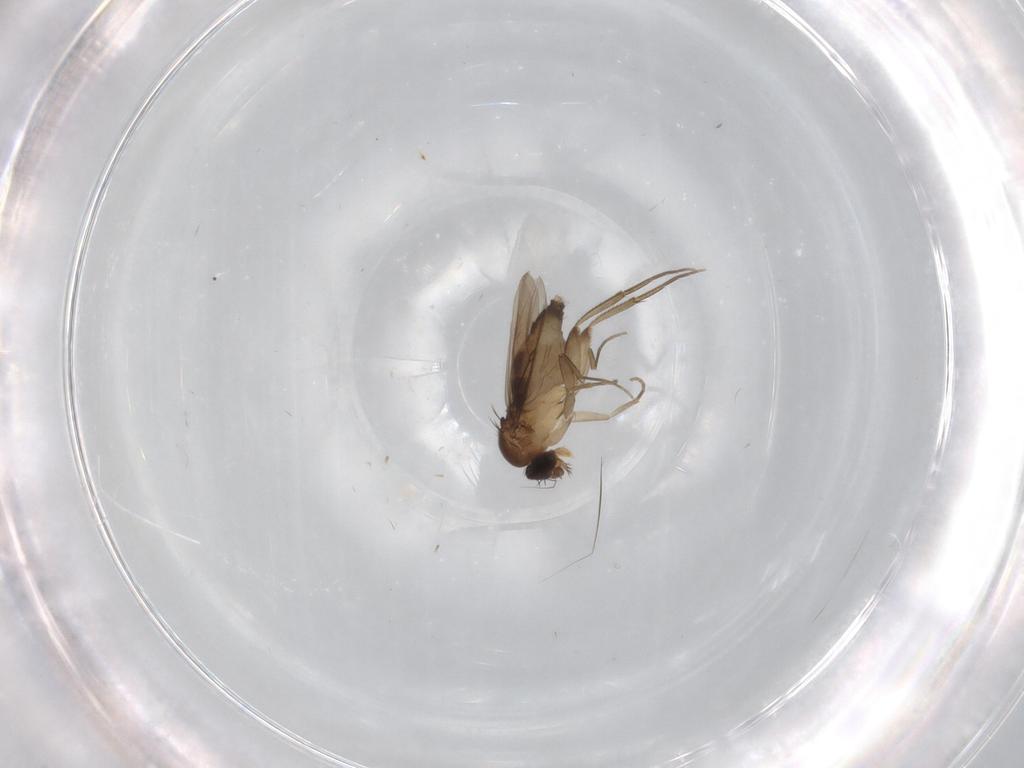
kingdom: Animalia
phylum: Arthropoda
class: Insecta
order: Diptera
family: Phoridae
